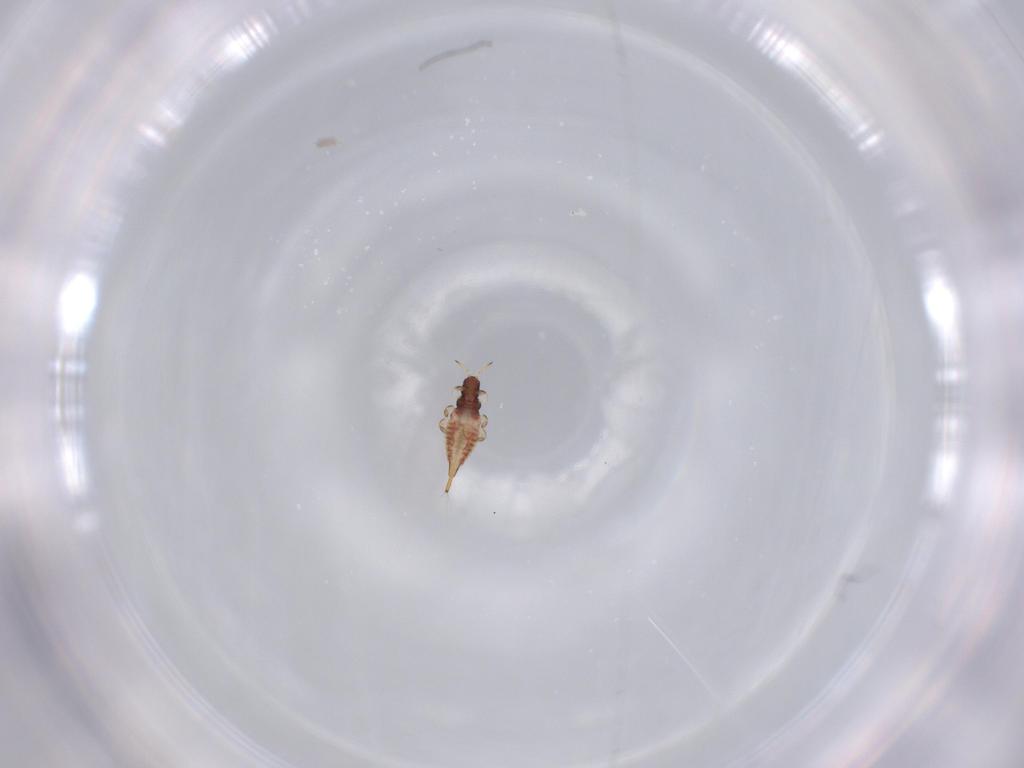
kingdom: Animalia
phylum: Arthropoda
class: Insecta
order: Thysanoptera
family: Phlaeothripidae
